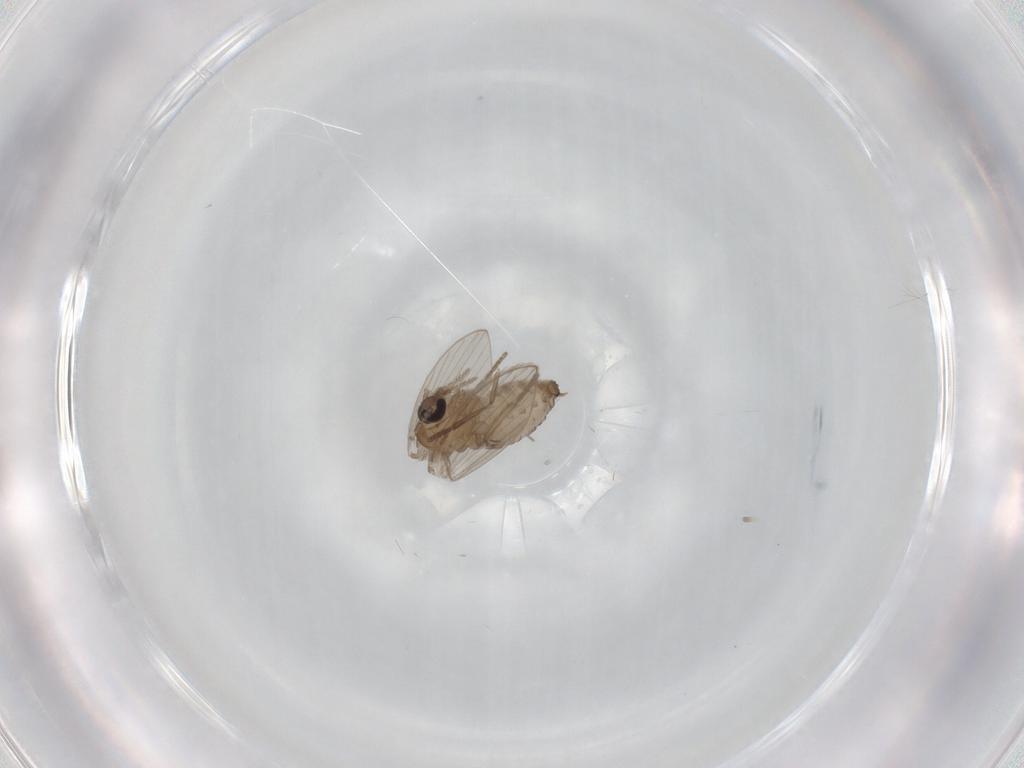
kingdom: Animalia
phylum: Arthropoda
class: Insecta
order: Diptera
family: Psychodidae
